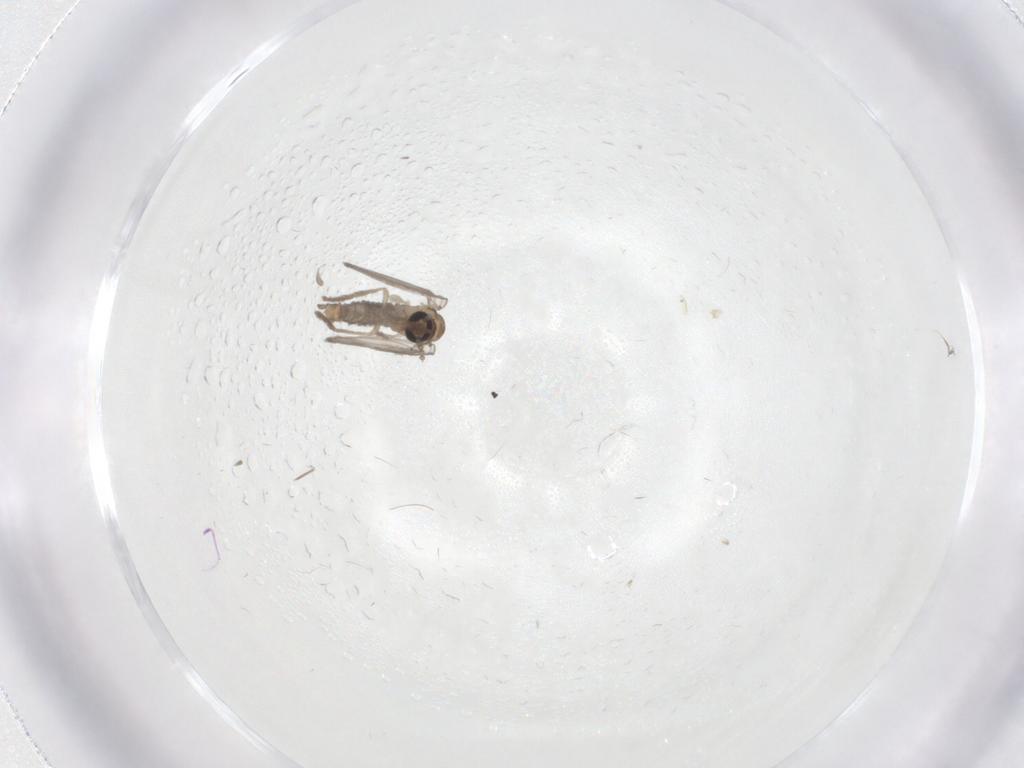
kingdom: Animalia
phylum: Arthropoda
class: Insecta
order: Diptera
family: Psychodidae
